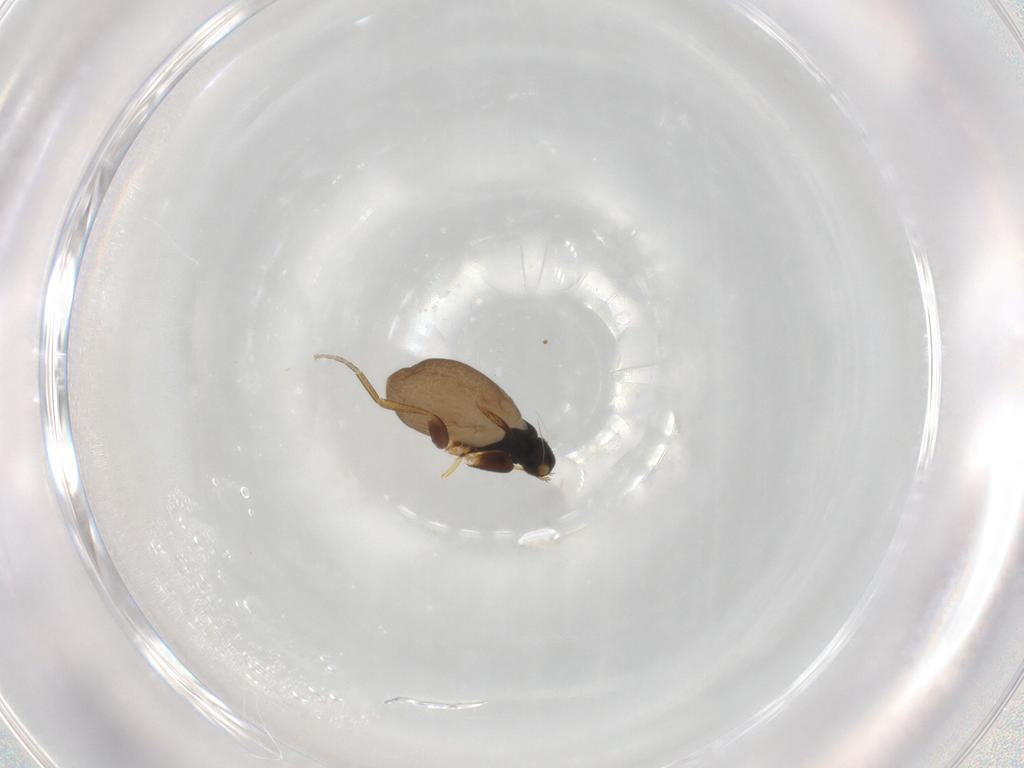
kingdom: Animalia
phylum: Arthropoda
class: Insecta
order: Diptera
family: Phoridae
